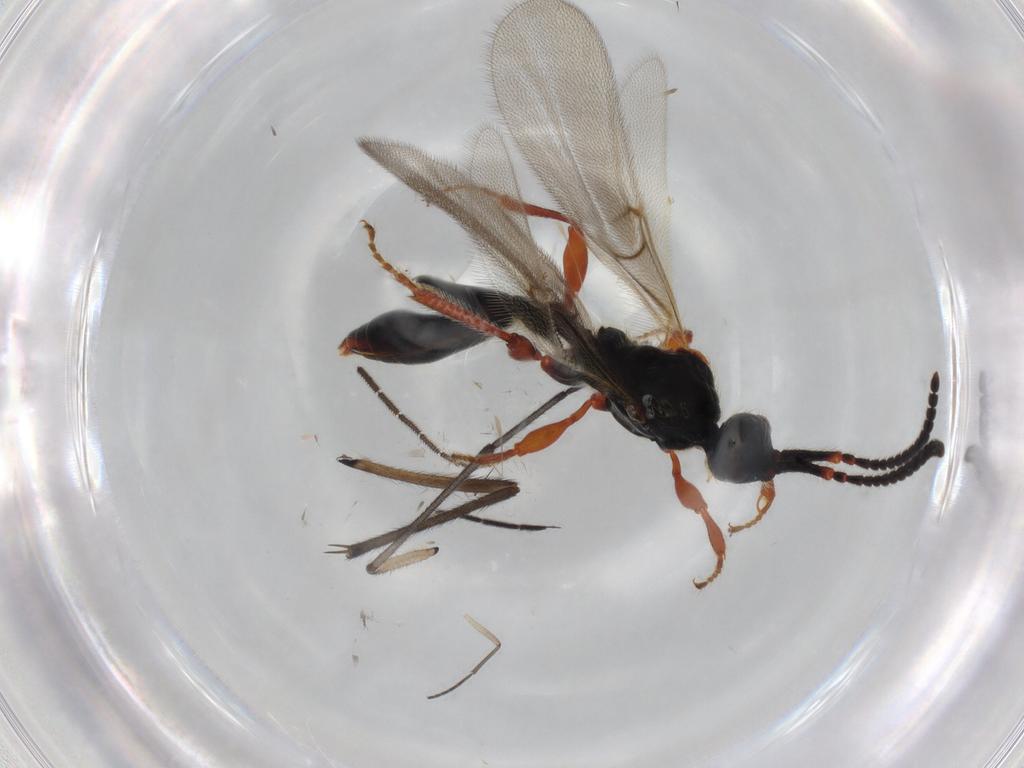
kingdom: Animalia
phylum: Arthropoda
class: Insecta
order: Hymenoptera
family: Diapriidae
